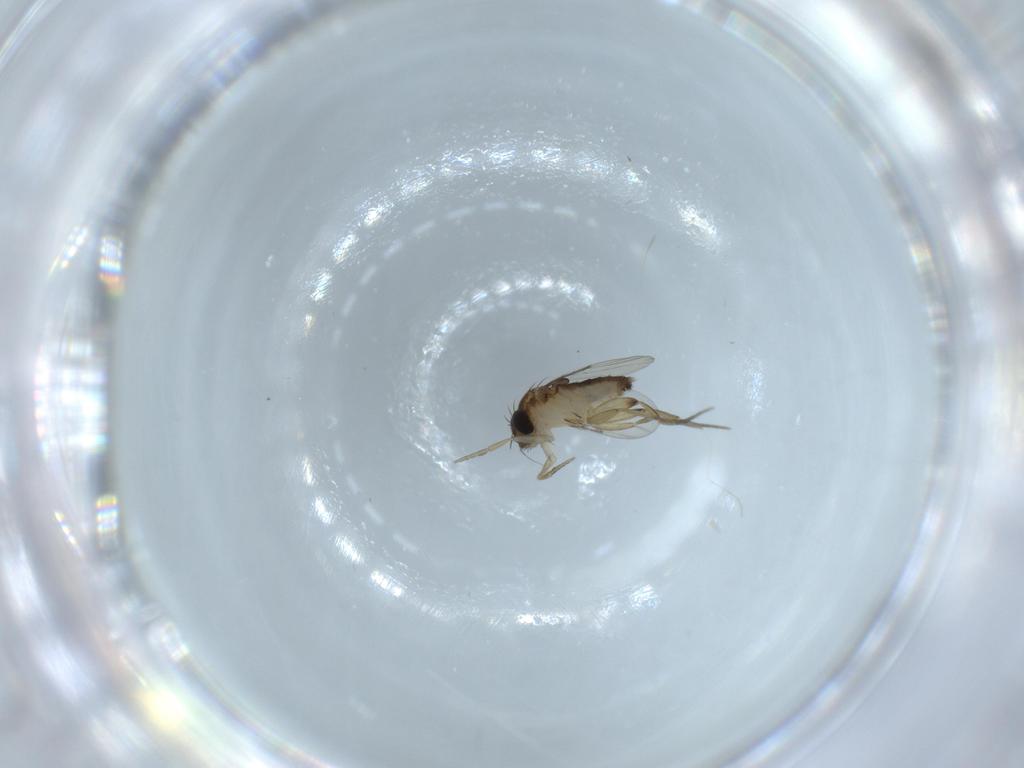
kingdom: Animalia
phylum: Arthropoda
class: Insecta
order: Diptera
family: Phoridae
